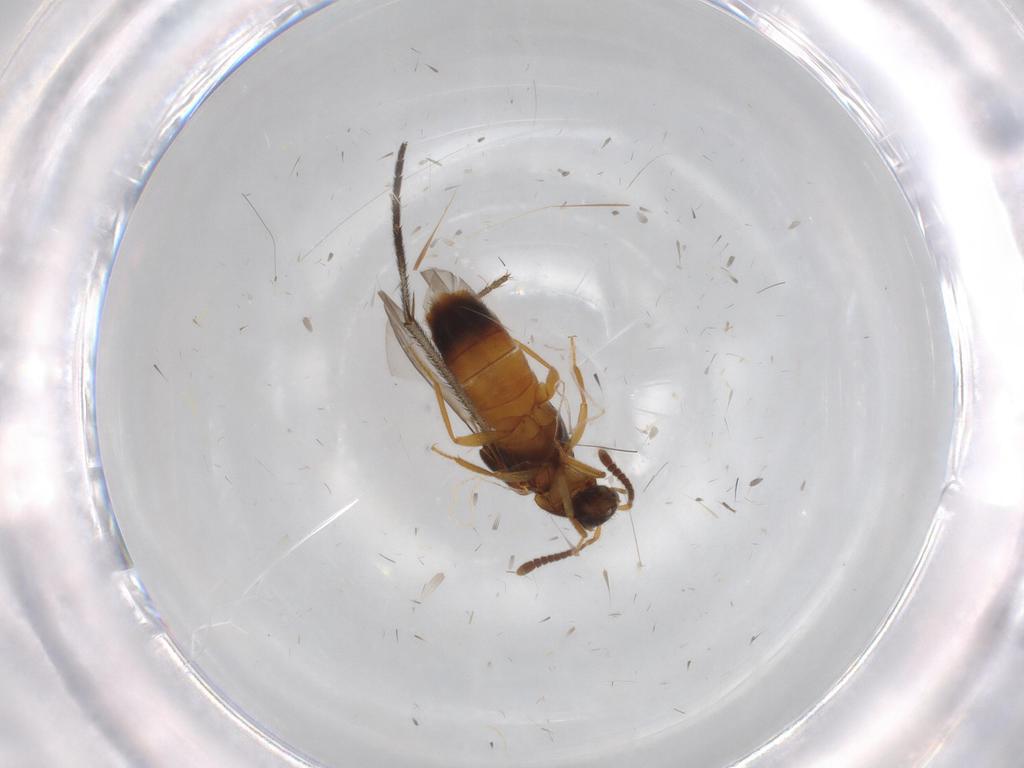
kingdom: Animalia
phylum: Arthropoda
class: Insecta
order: Coleoptera
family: Staphylinidae
